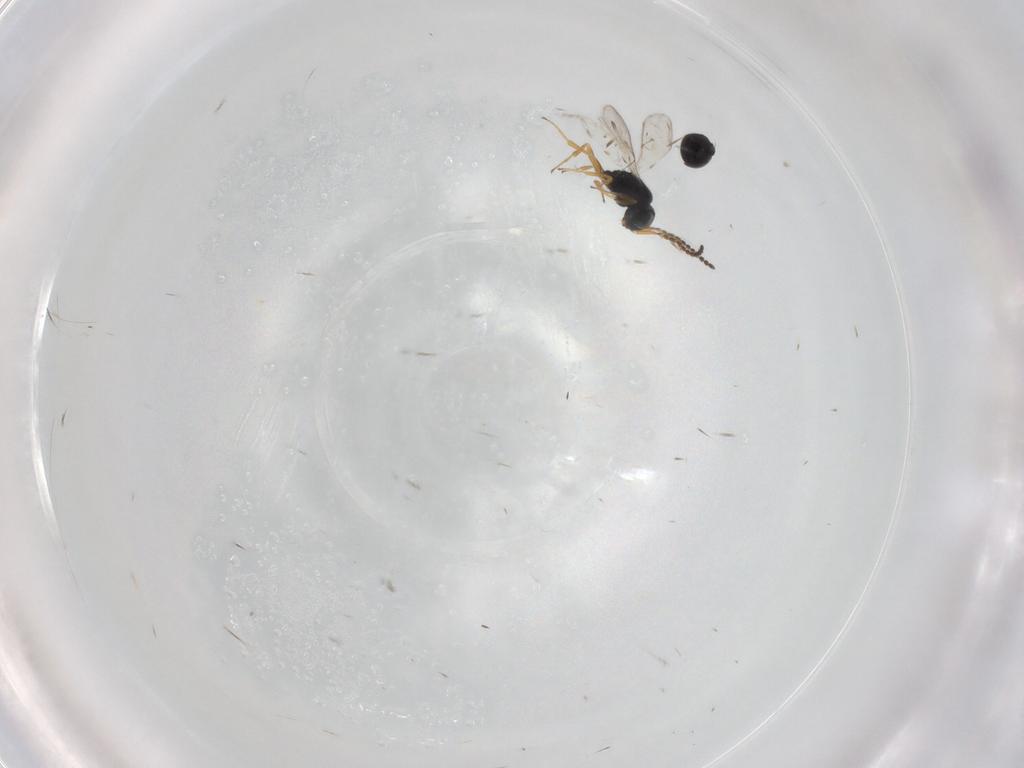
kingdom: Animalia
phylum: Arthropoda
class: Insecta
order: Hymenoptera
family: Scelionidae
